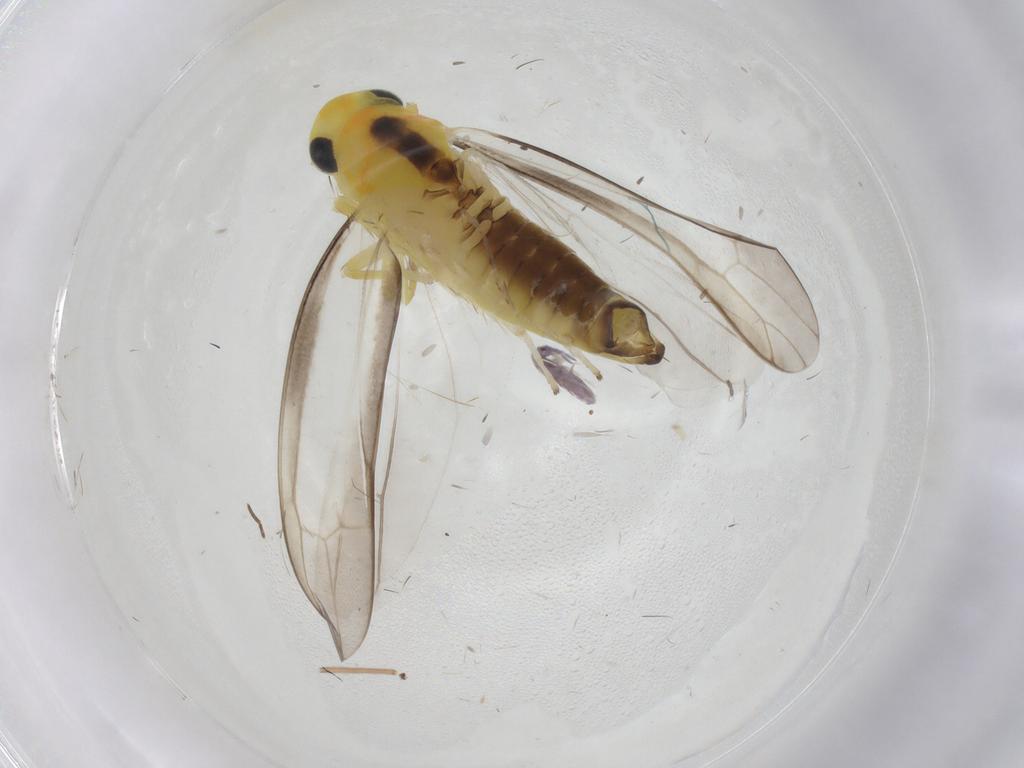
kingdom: Animalia
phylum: Arthropoda
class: Insecta
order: Hemiptera
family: Cicadellidae
